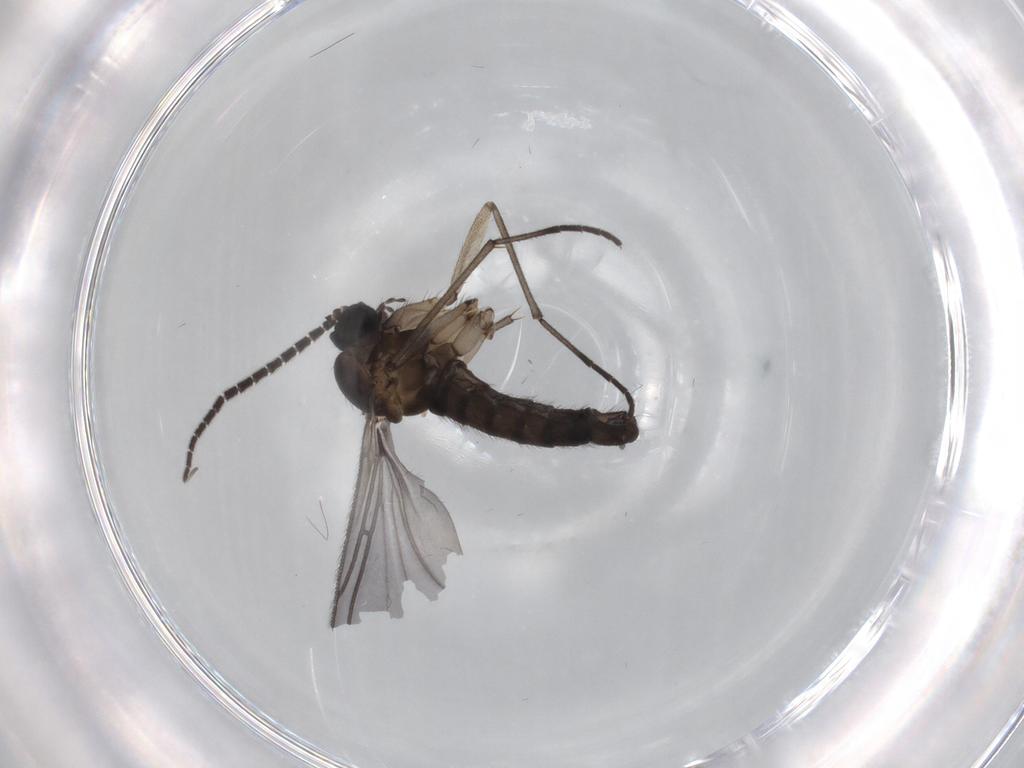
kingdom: Animalia
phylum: Arthropoda
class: Insecta
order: Diptera
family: Sciaridae
